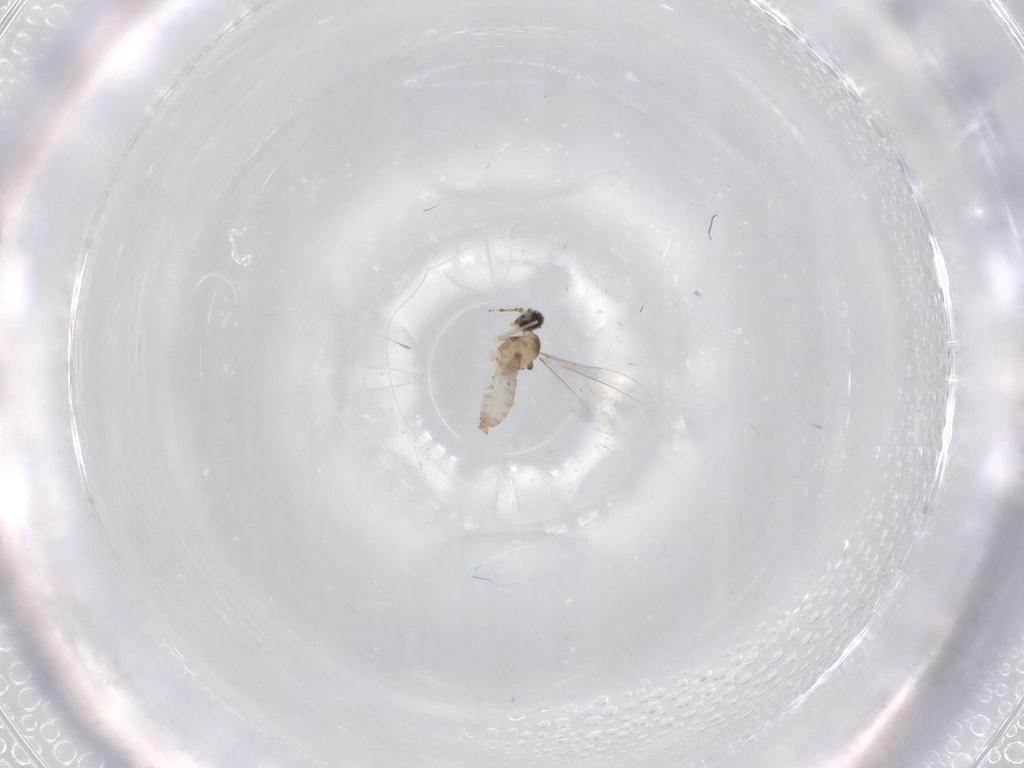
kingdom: Animalia
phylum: Arthropoda
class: Insecta
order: Diptera
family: Cecidomyiidae
